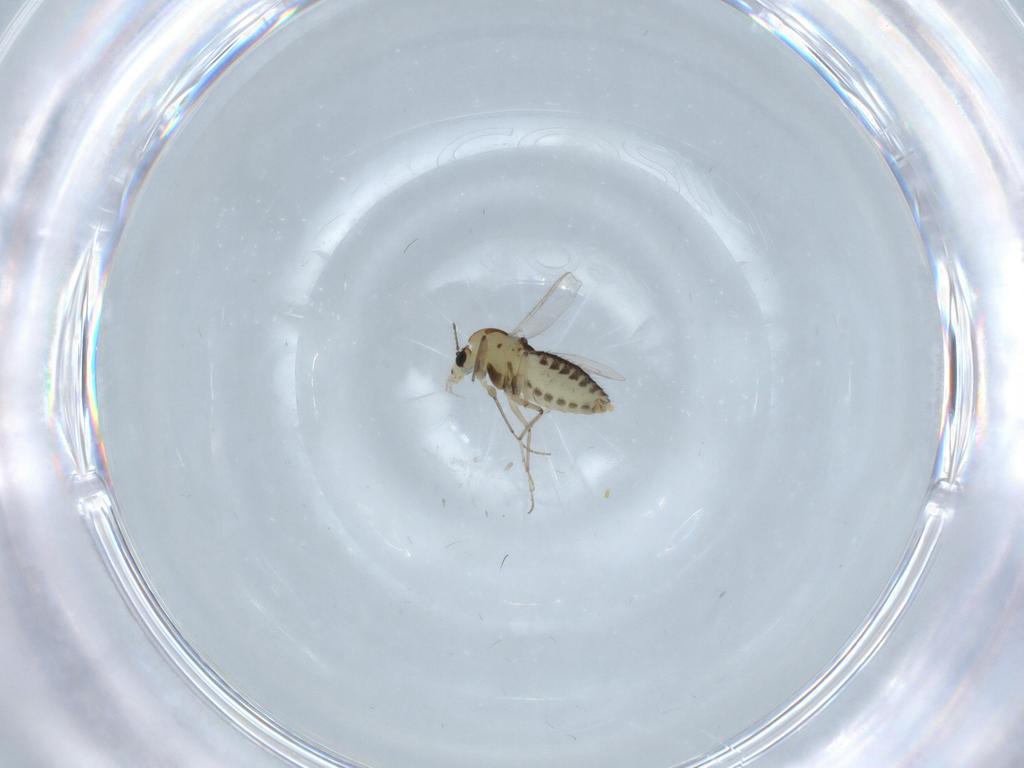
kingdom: Animalia
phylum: Arthropoda
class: Insecta
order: Diptera
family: Chironomidae
